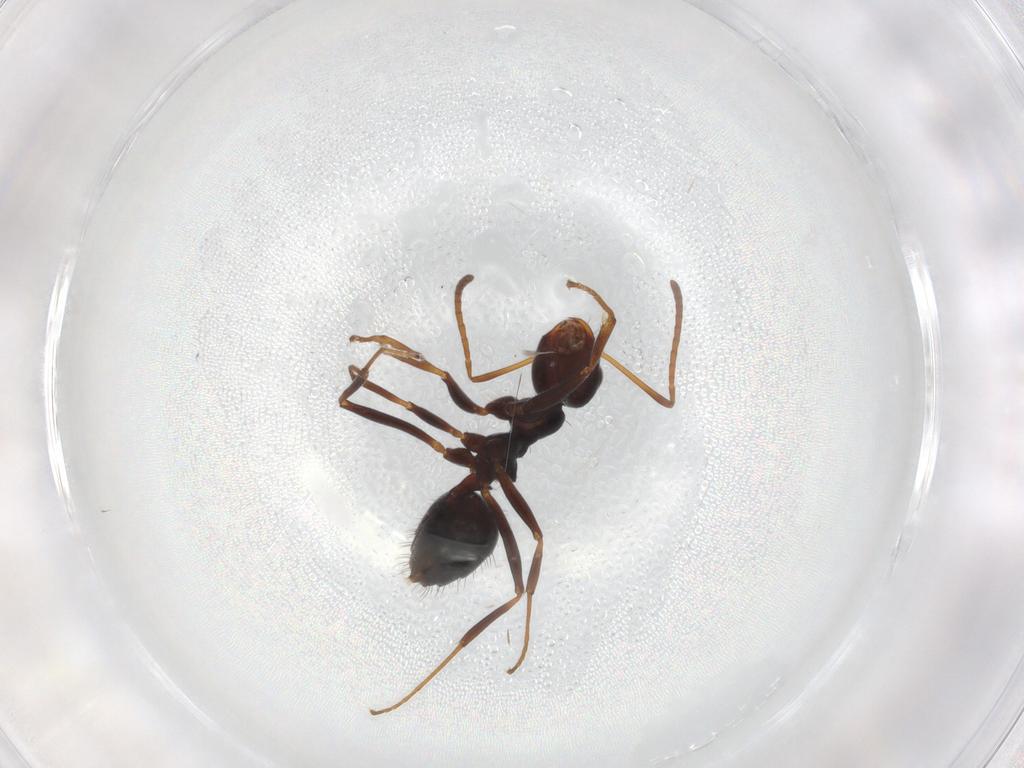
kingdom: Animalia
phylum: Arthropoda
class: Insecta
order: Hymenoptera
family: Formicidae
